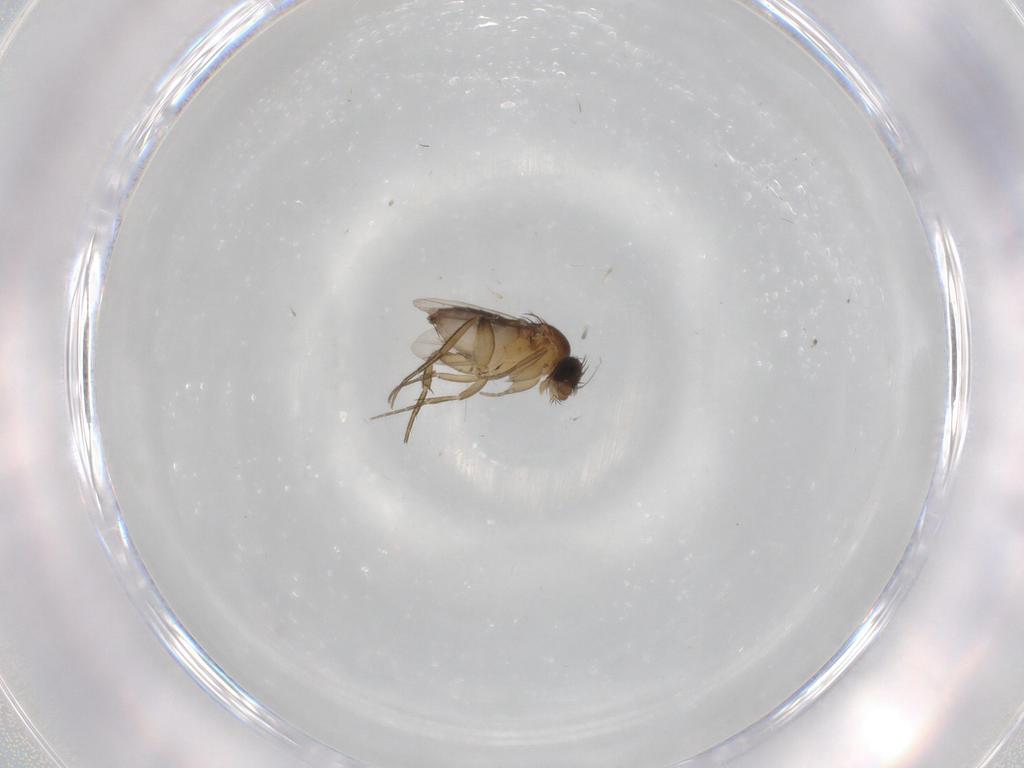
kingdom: Animalia
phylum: Arthropoda
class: Insecta
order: Diptera
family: Phoridae
